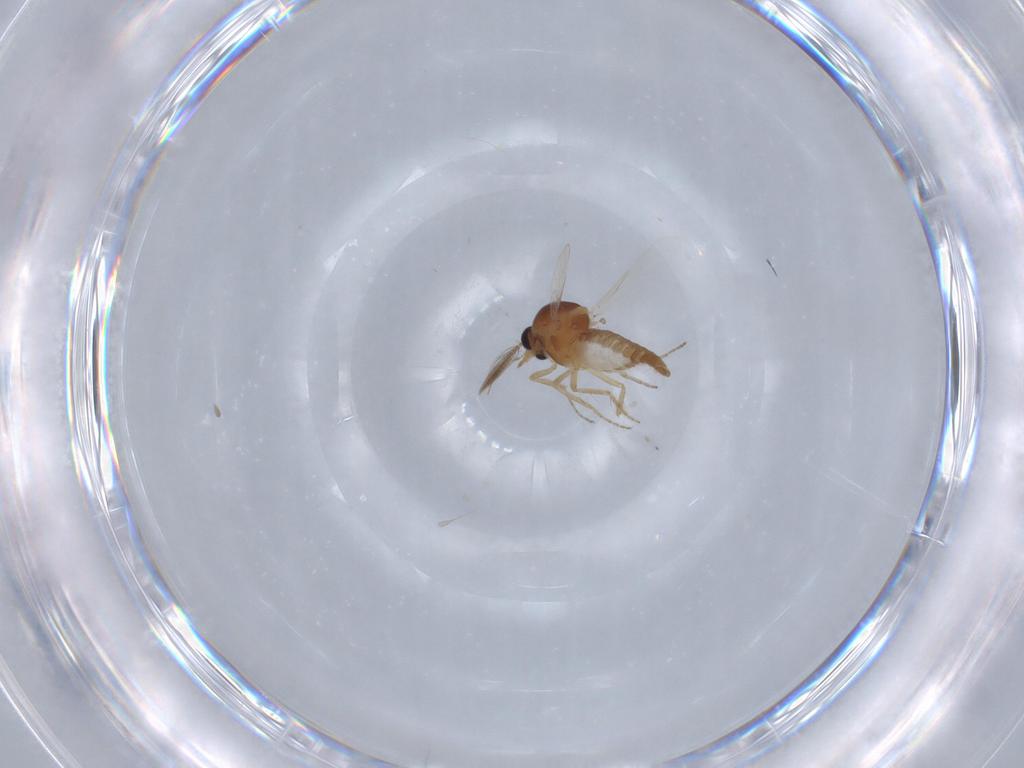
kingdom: Animalia
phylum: Arthropoda
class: Insecta
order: Diptera
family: Ceratopogonidae
